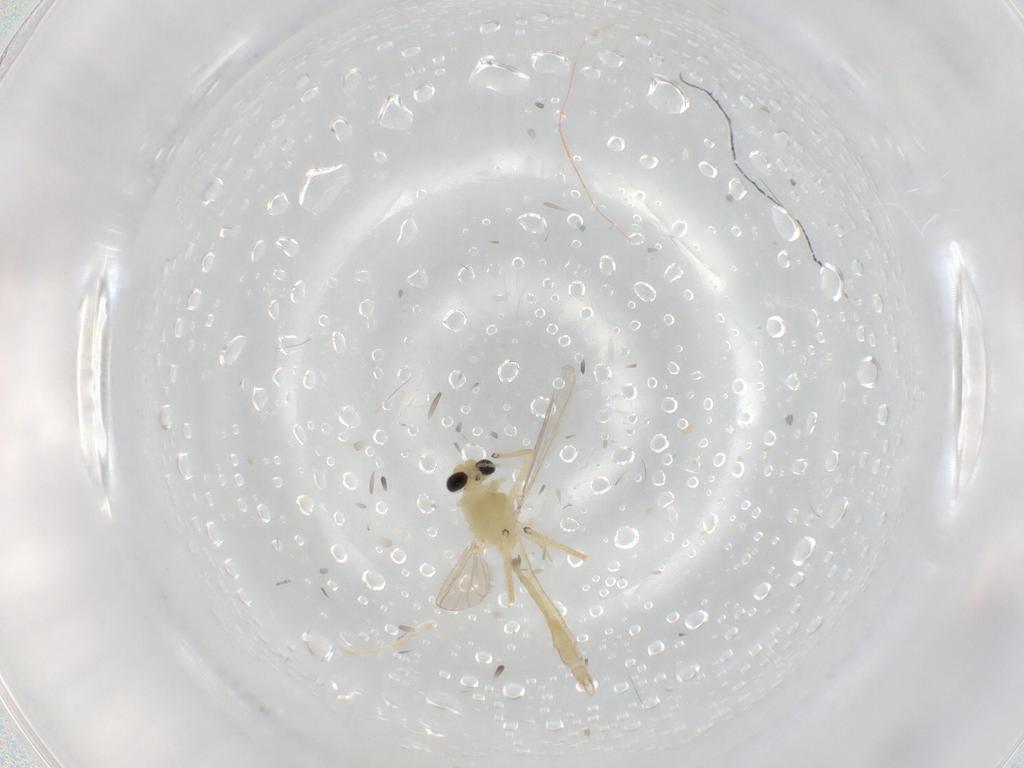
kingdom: Animalia
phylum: Arthropoda
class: Insecta
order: Diptera
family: Chironomidae
